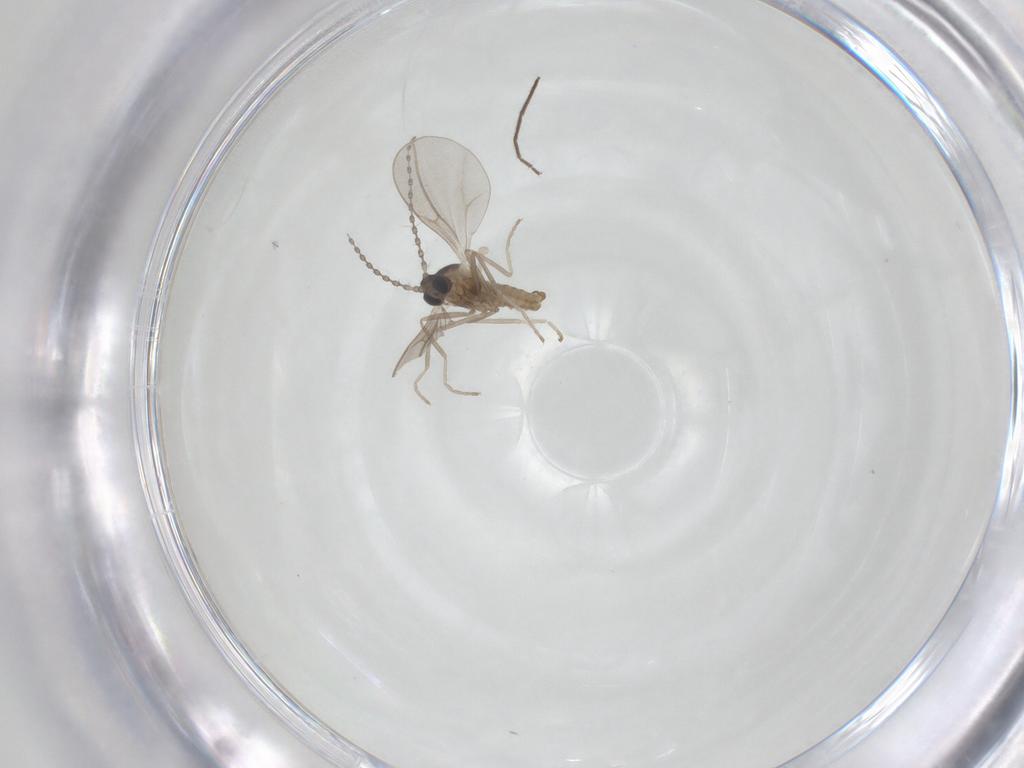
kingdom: Animalia
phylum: Arthropoda
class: Insecta
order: Diptera
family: Chironomidae
